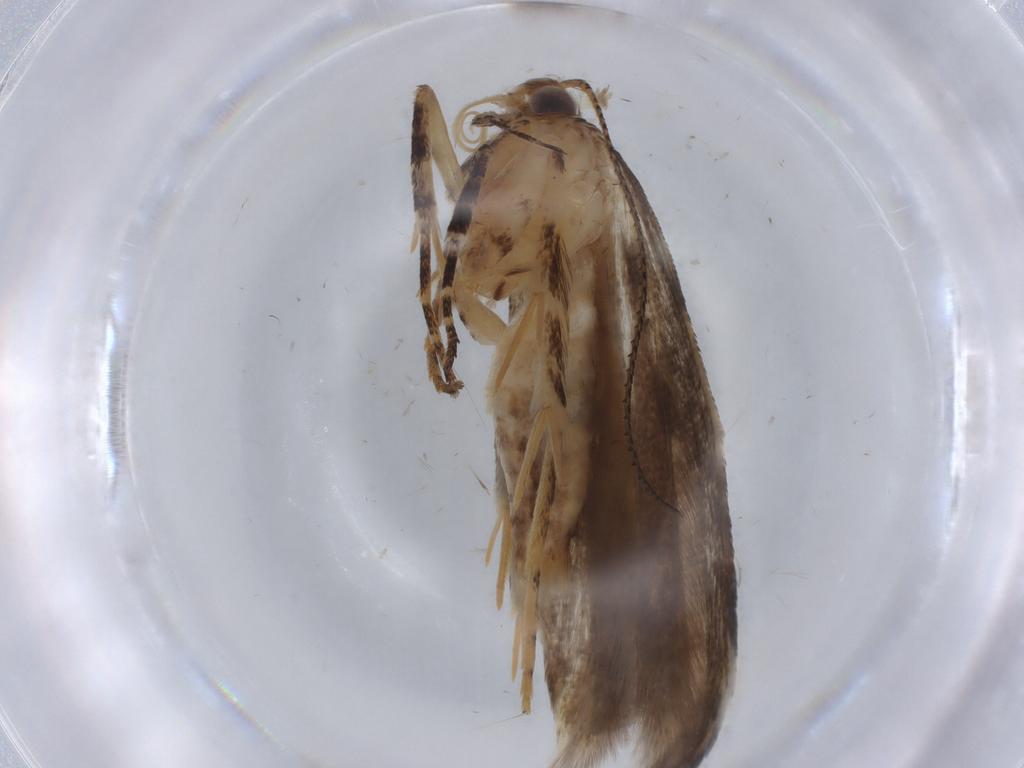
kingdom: Animalia
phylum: Arthropoda
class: Insecta
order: Lepidoptera
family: Gelechiidae
